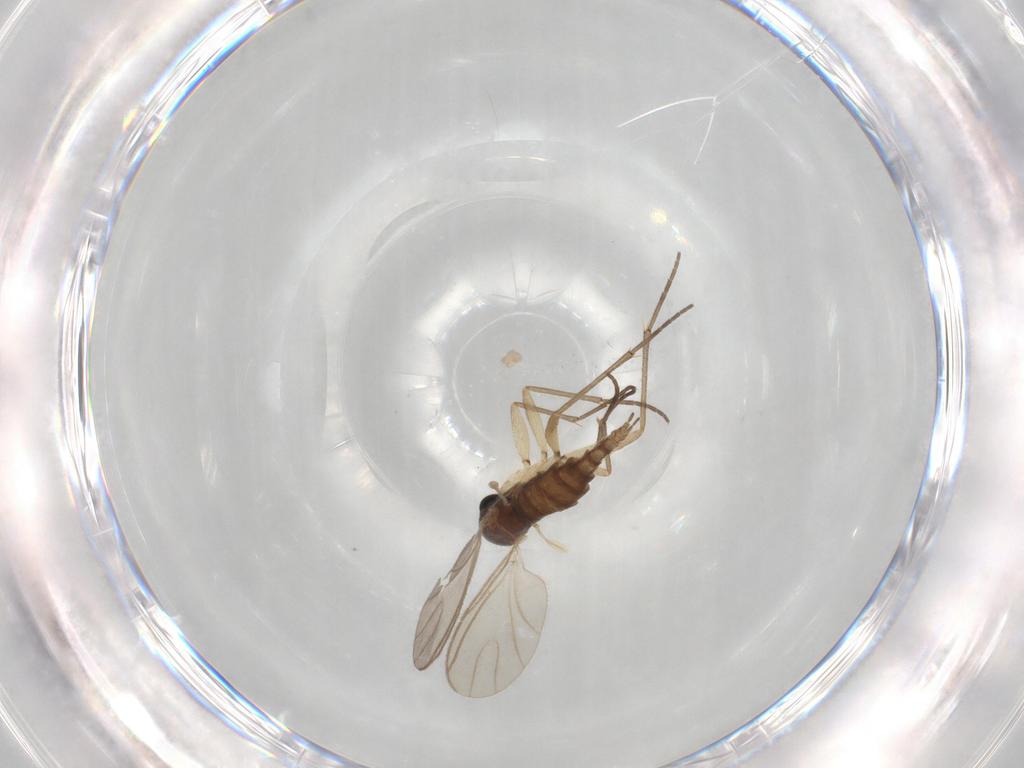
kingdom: Animalia
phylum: Arthropoda
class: Insecta
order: Diptera
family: Sciaridae
